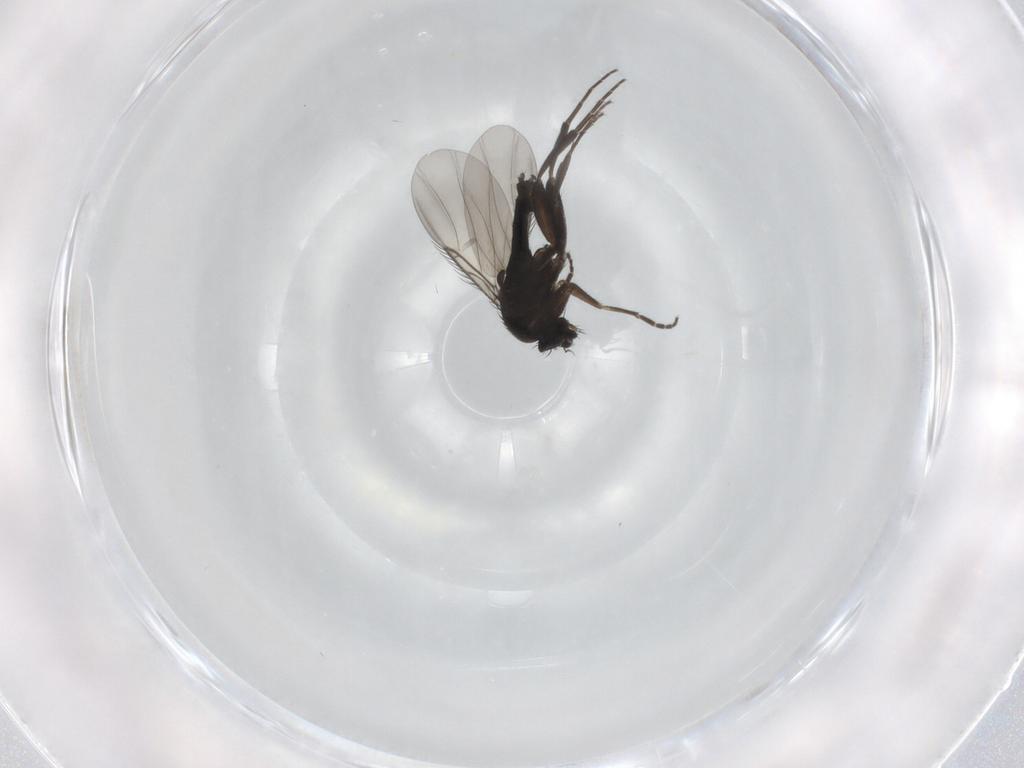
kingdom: Animalia
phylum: Arthropoda
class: Insecta
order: Diptera
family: Phoridae
